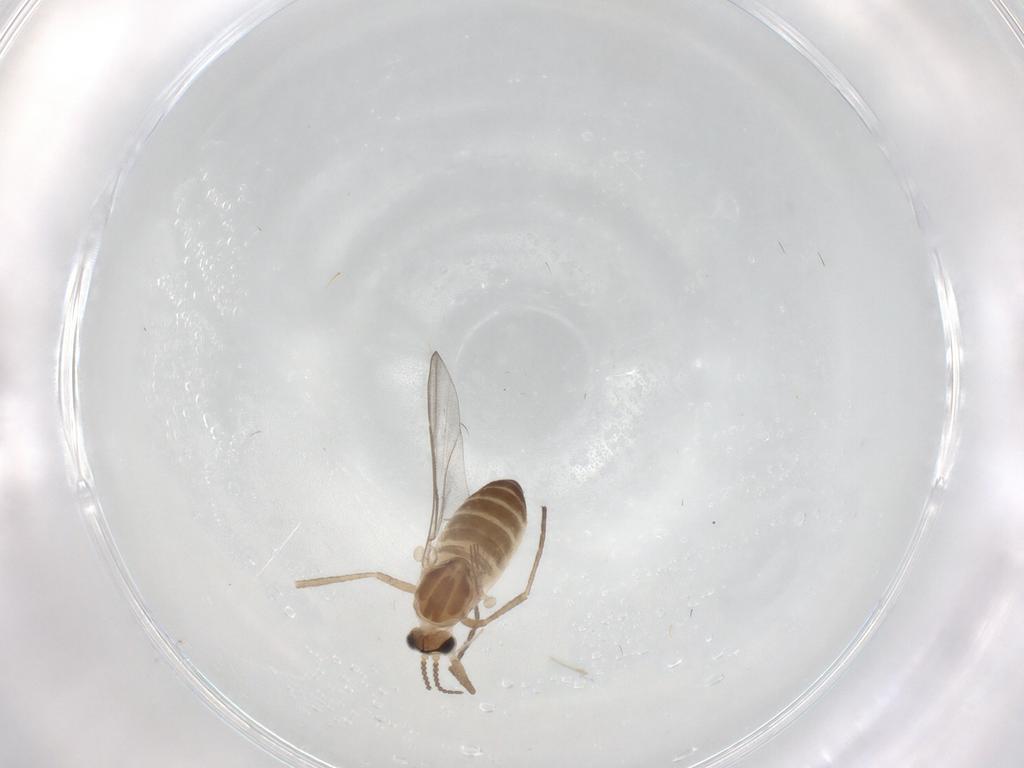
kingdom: Animalia
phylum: Arthropoda
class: Insecta
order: Diptera
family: Cecidomyiidae
